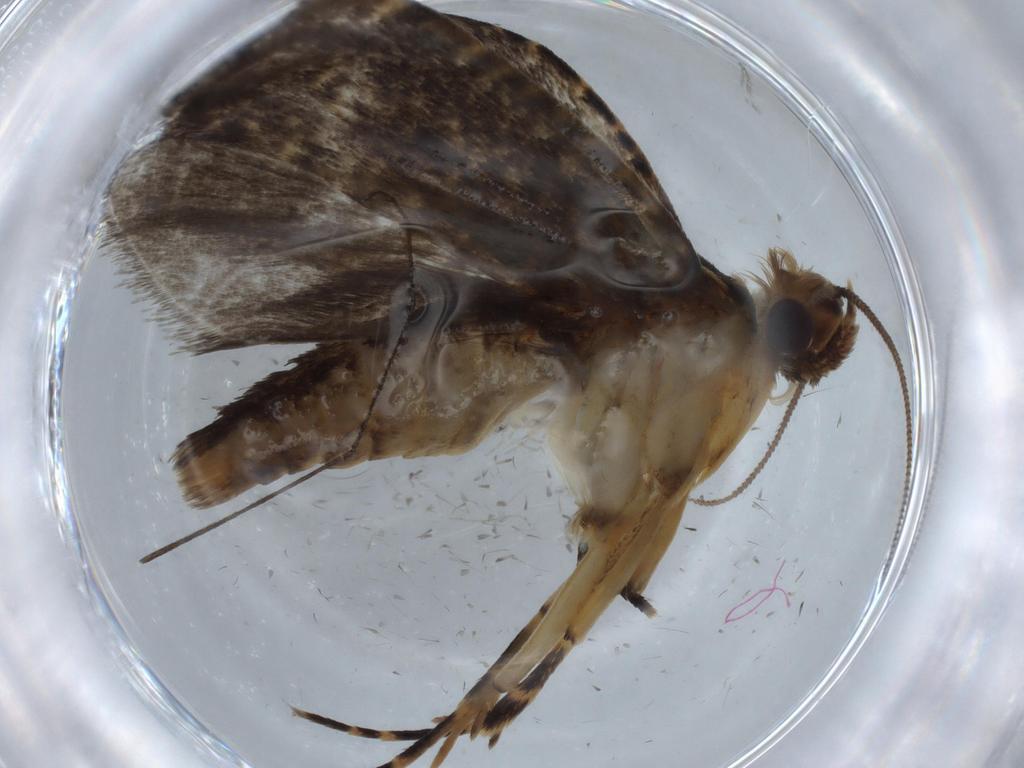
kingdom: Animalia
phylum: Arthropoda
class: Insecta
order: Lepidoptera
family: Tineidae
